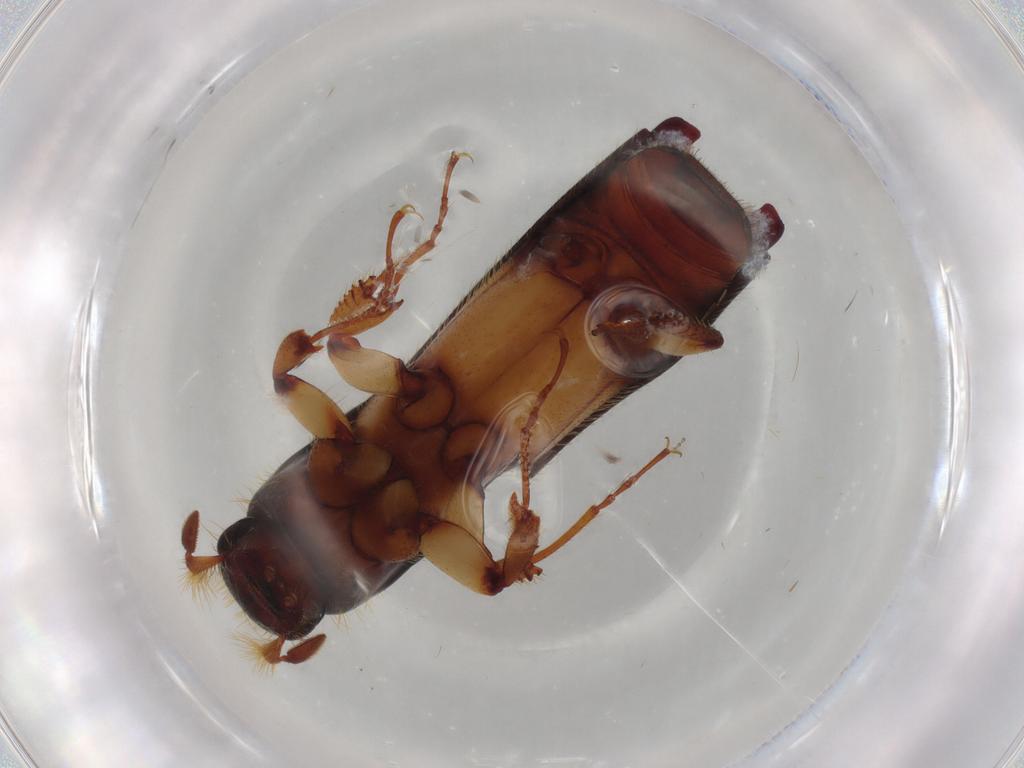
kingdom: Animalia
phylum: Arthropoda
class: Insecta
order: Coleoptera
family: Curculionidae
